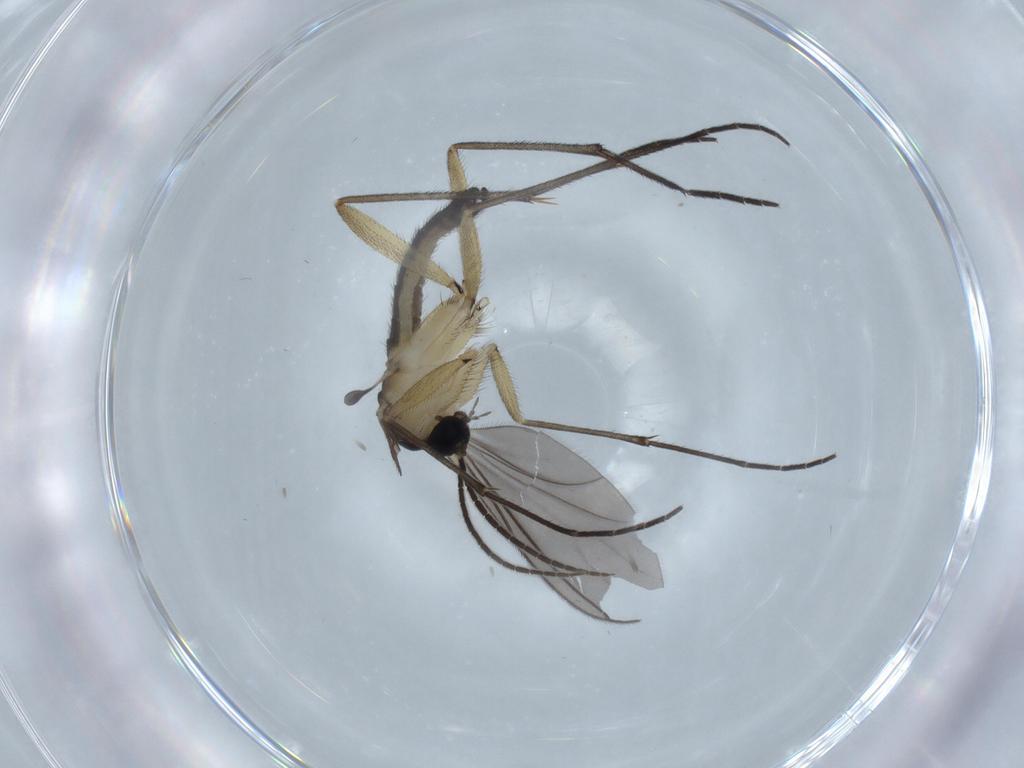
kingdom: Animalia
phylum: Arthropoda
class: Insecta
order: Diptera
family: Sciaridae
